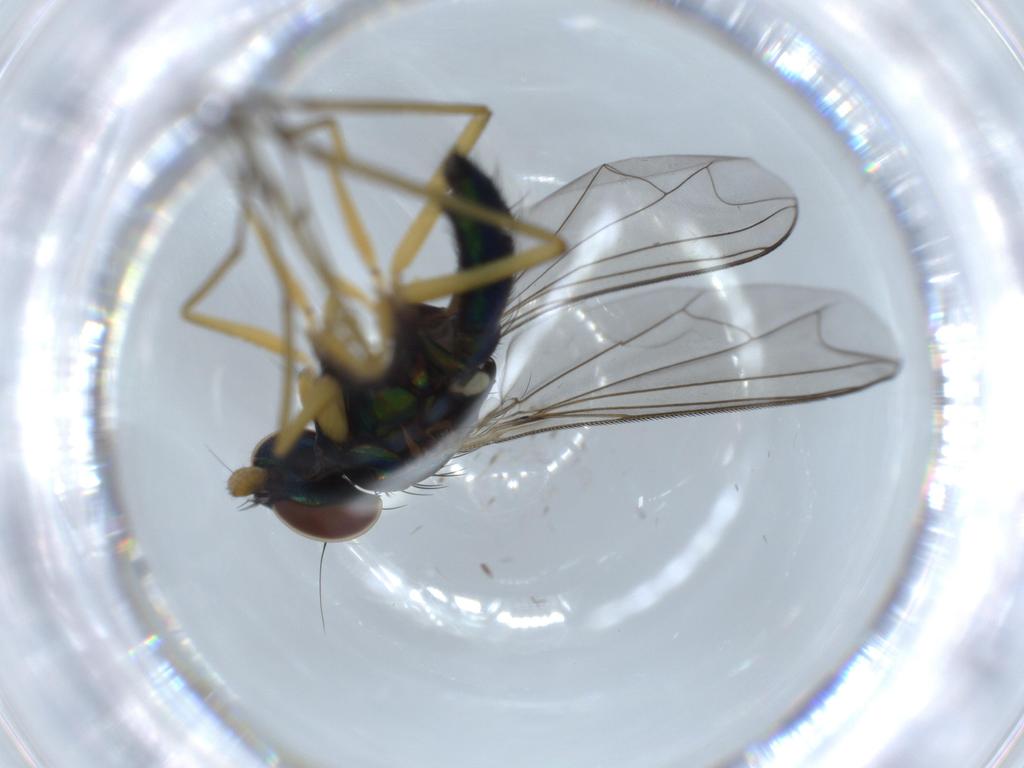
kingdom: Animalia
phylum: Arthropoda
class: Insecta
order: Diptera
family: Dolichopodidae
